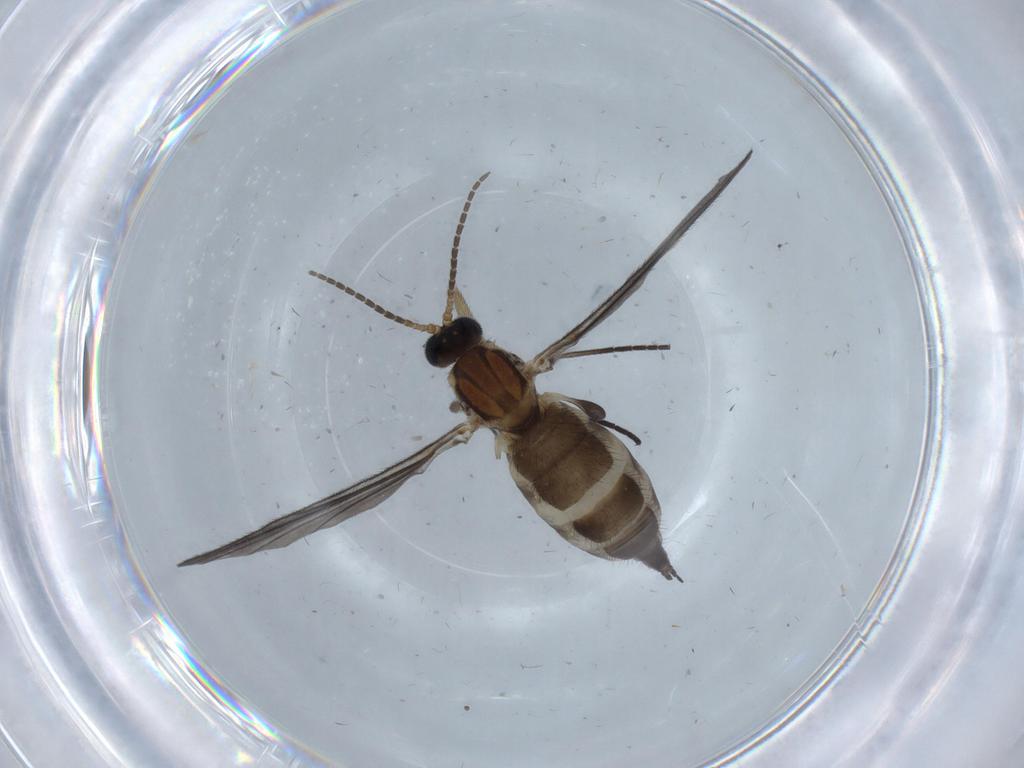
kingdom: Animalia
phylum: Arthropoda
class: Insecta
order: Diptera
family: Sciaridae
